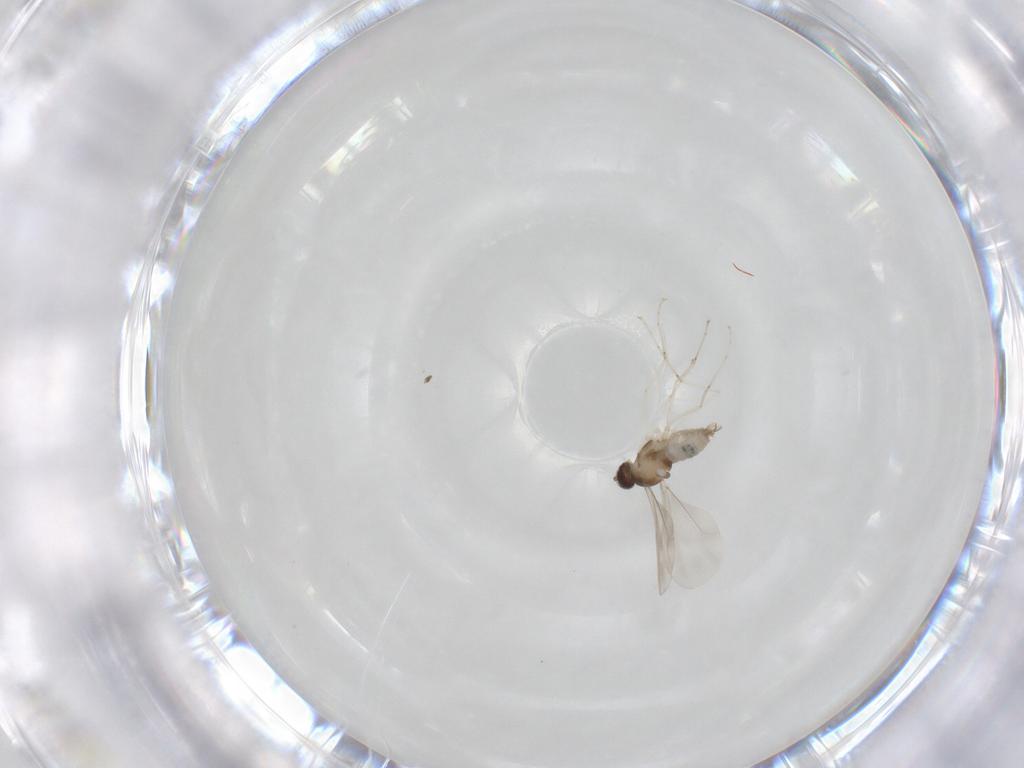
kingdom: Animalia
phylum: Arthropoda
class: Insecta
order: Diptera
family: Cecidomyiidae
